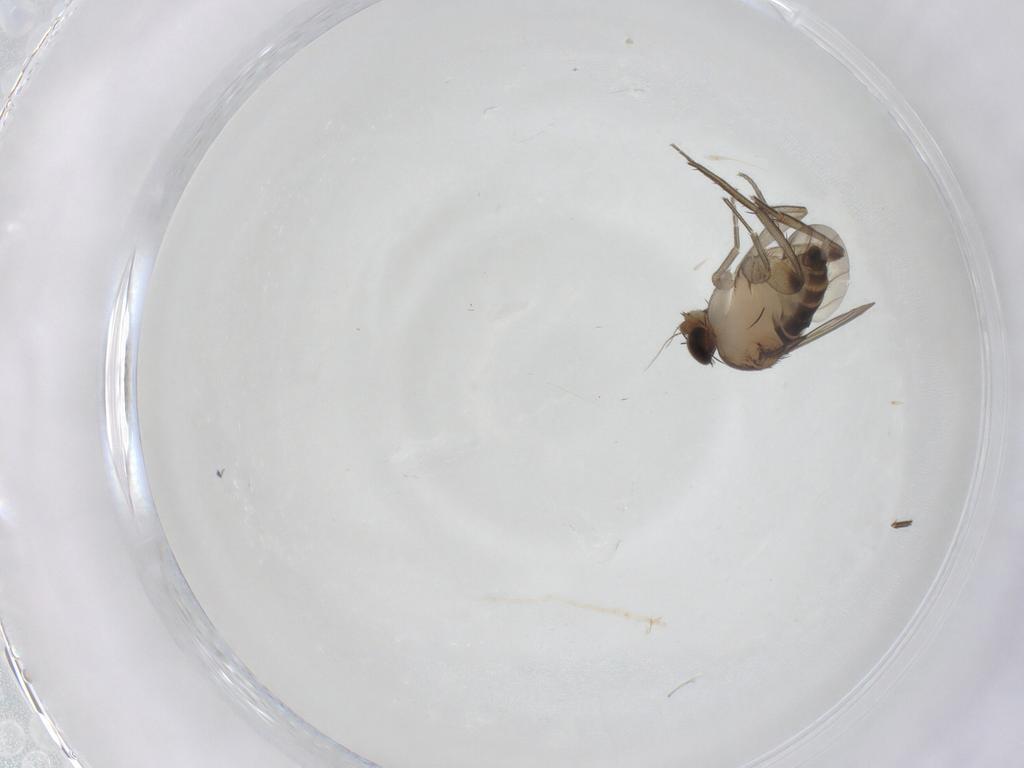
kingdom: Animalia
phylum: Arthropoda
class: Insecta
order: Diptera
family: Phoridae
